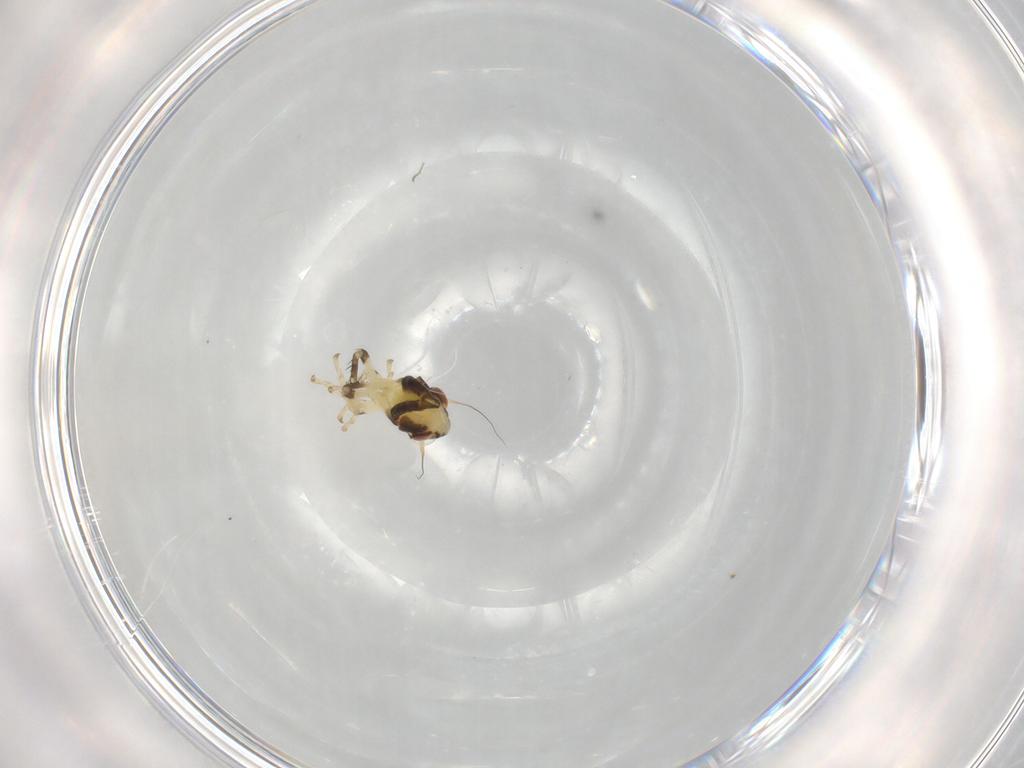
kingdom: Animalia
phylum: Arthropoda
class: Insecta
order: Hemiptera
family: Cicadellidae
